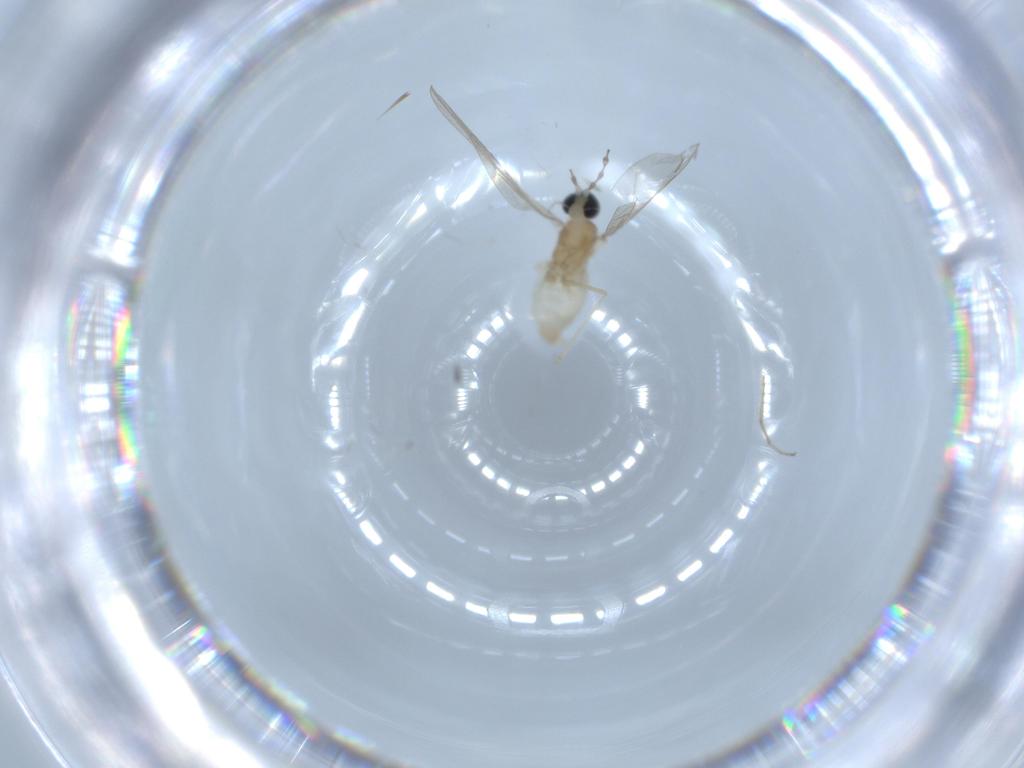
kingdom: Animalia
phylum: Arthropoda
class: Insecta
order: Diptera
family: Cecidomyiidae
